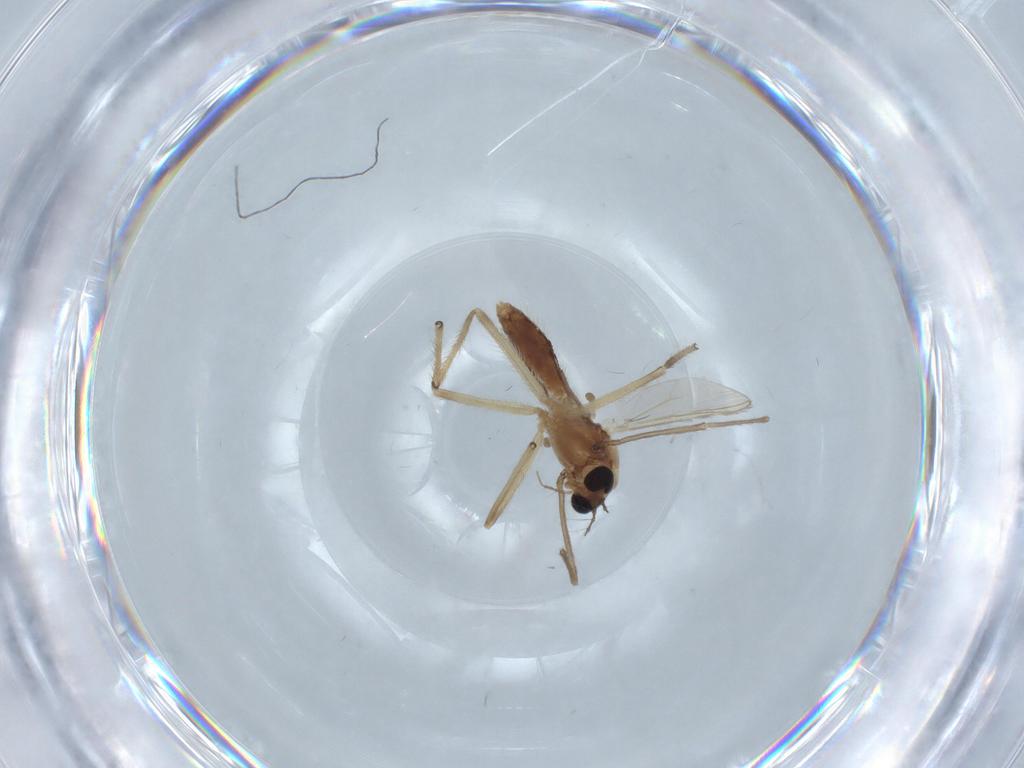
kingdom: Animalia
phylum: Arthropoda
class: Insecta
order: Diptera
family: Chironomidae
